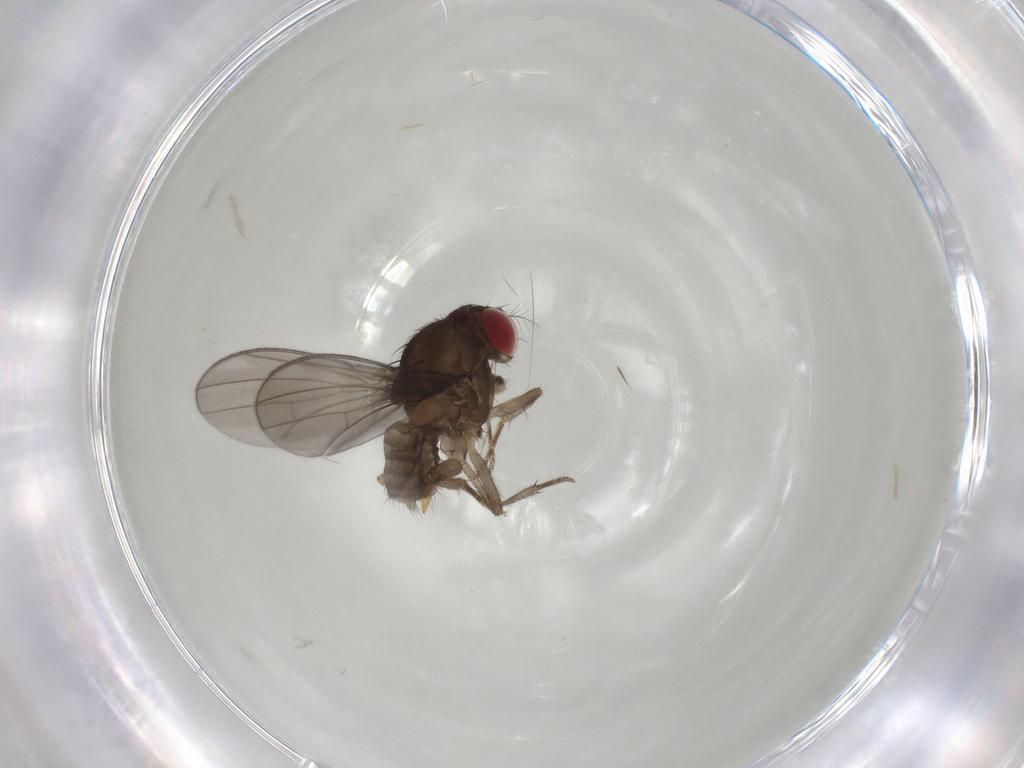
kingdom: Animalia
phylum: Arthropoda
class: Insecta
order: Diptera
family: Drosophilidae
